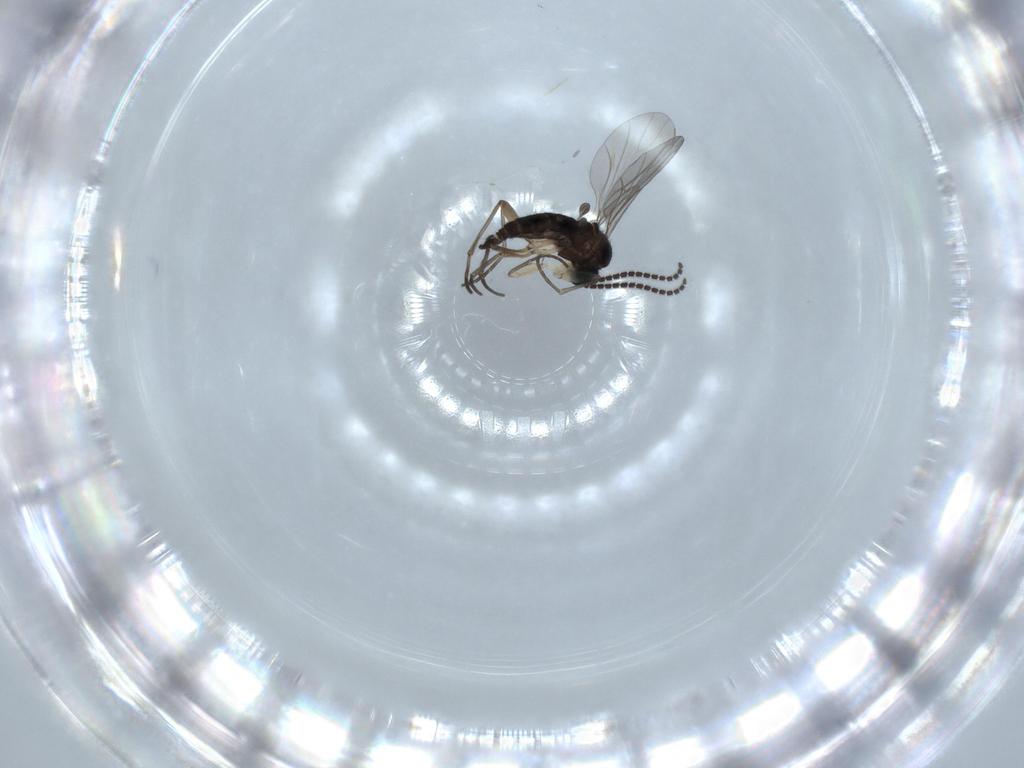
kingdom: Animalia
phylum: Arthropoda
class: Insecta
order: Diptera
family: Sciaridae
